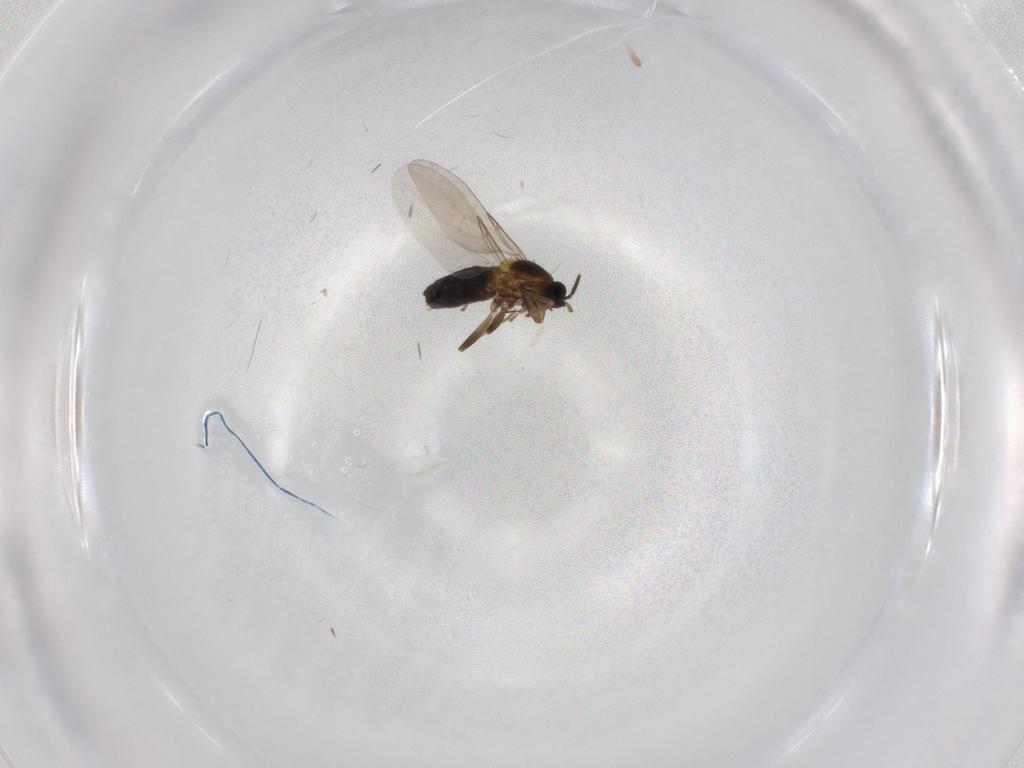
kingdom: Animalia
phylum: Arthropoda
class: Insecta
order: Diptera
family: Scatopsidae
